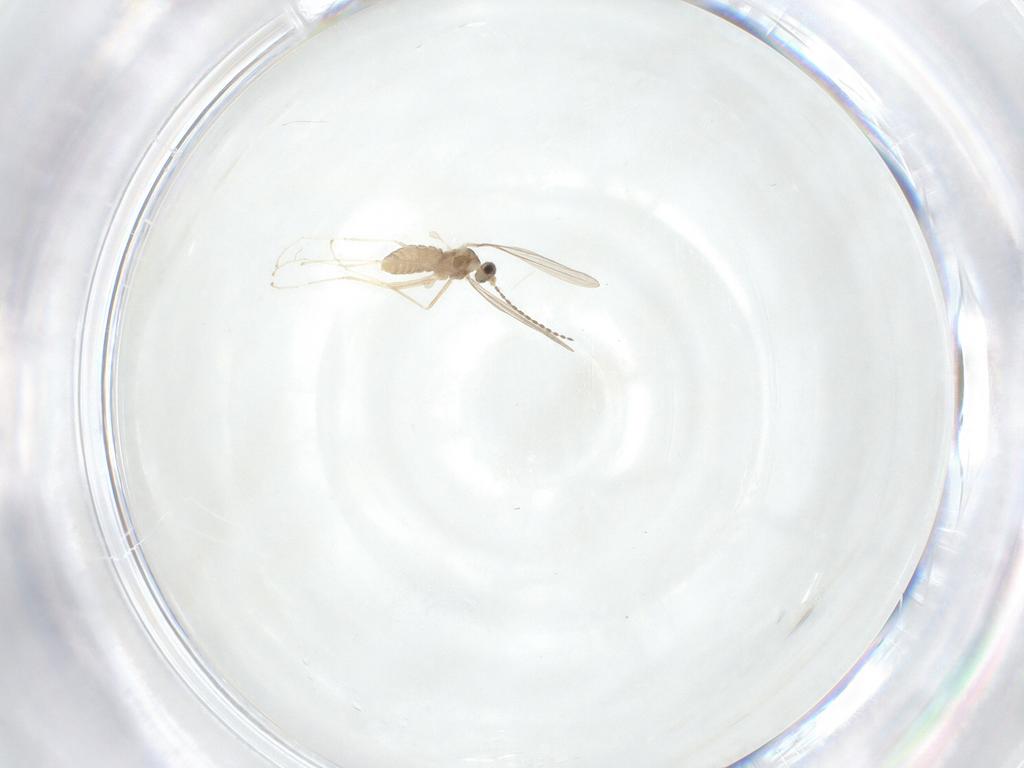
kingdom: Animalia
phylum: Arthropoda
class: Insecta
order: Diptera
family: Cecidomyiidae
